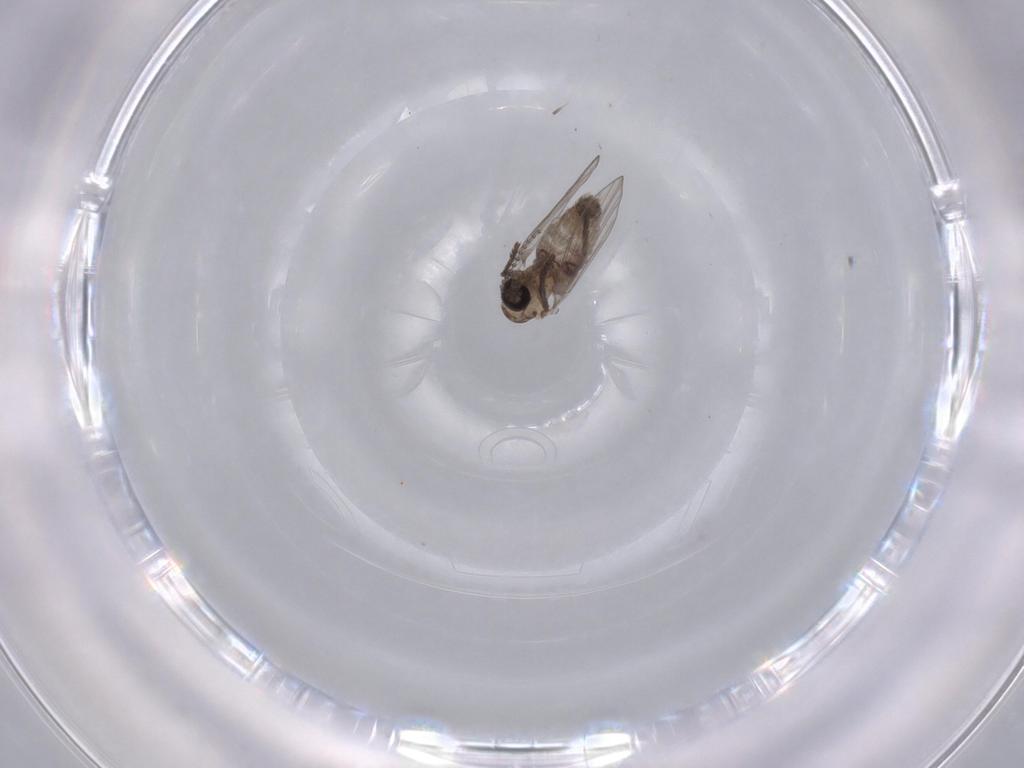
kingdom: Animalia
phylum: Arthropoda
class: Insecta
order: Diptera
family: Psychodidae
